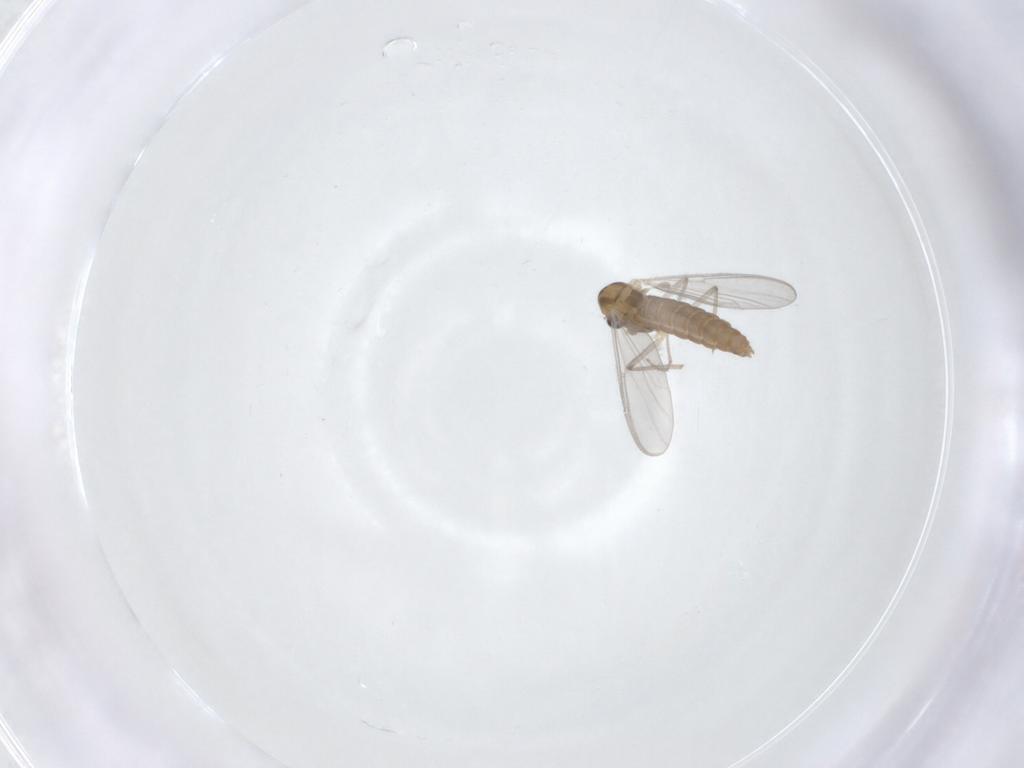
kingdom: Animalia
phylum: Arthropoda
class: Insecta
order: Diptera
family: Chironomidae
